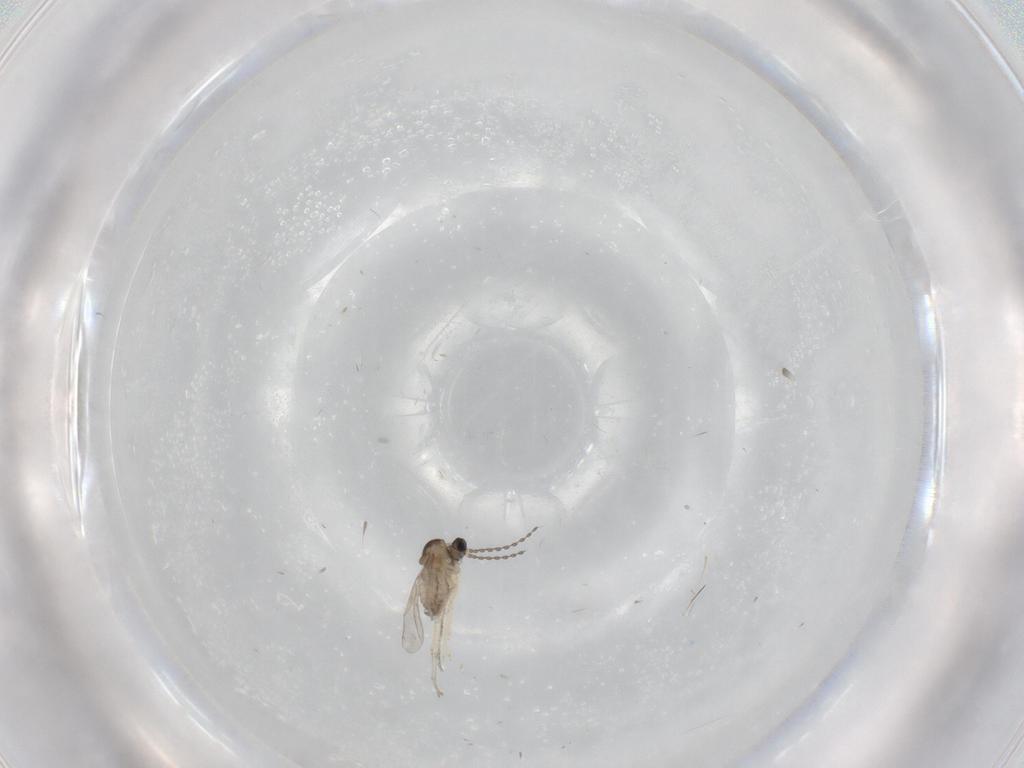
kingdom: Animalia
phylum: Arthropoda
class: Insecta
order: Diptera
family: Cecidomyiidae
